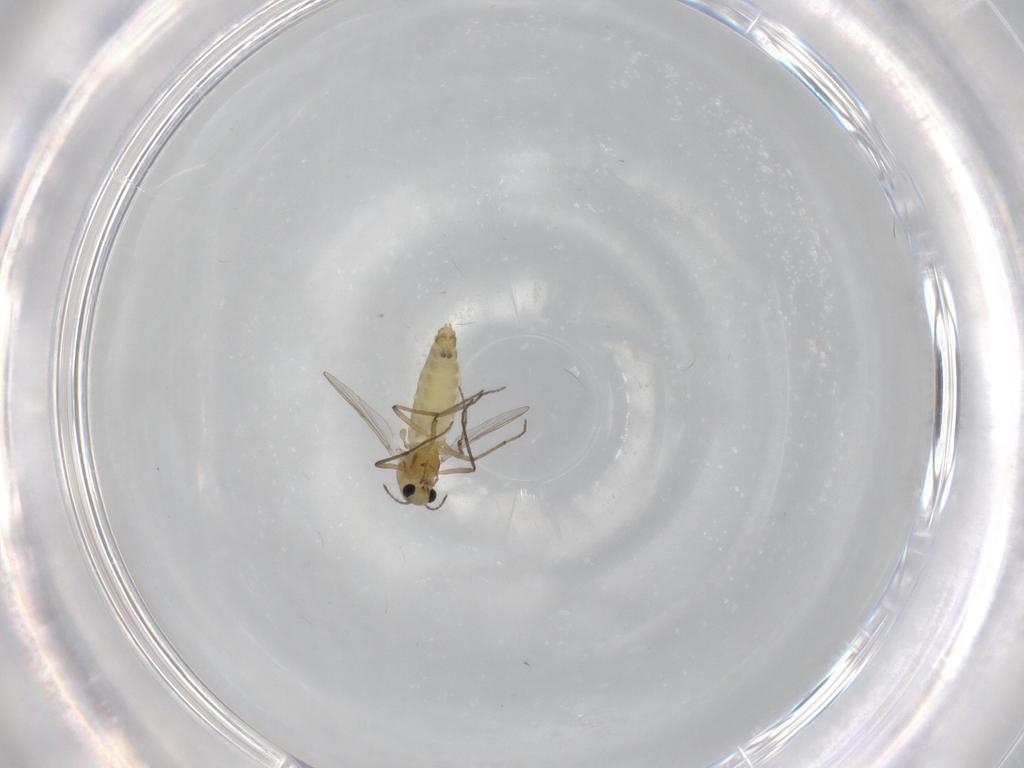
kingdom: Animalia
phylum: Arthropoda
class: Insecta
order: Diptera
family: Chironomidae
